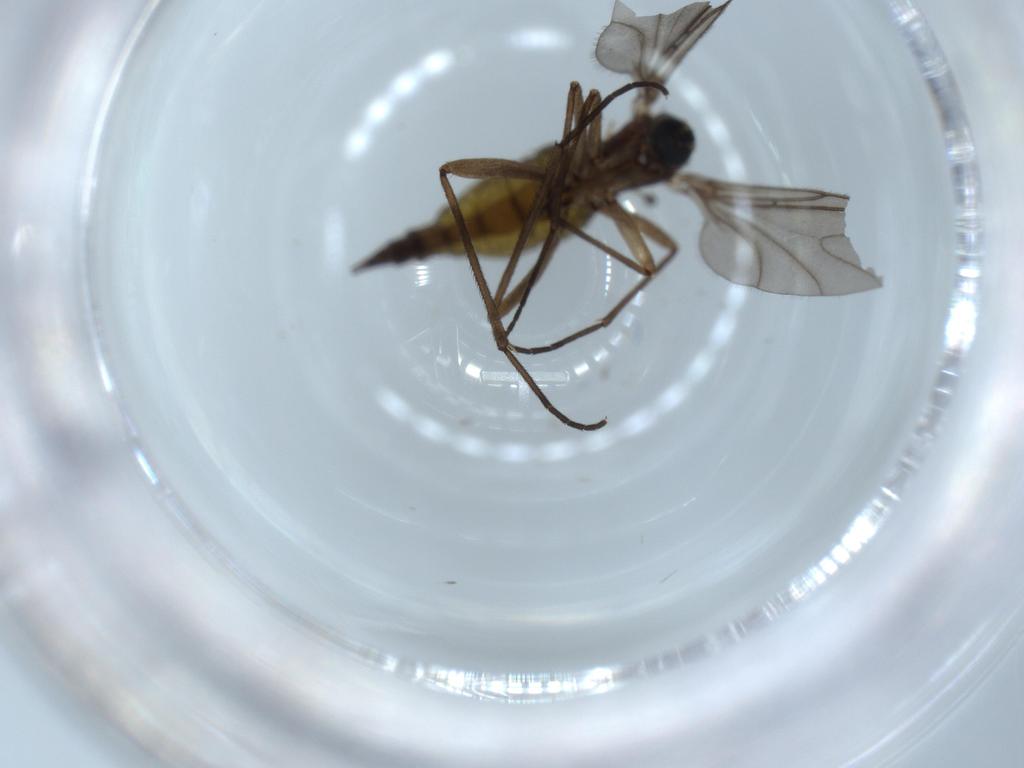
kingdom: Animalia
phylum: Arthropoda
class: Insecta
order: Diptera
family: Sciaridae
